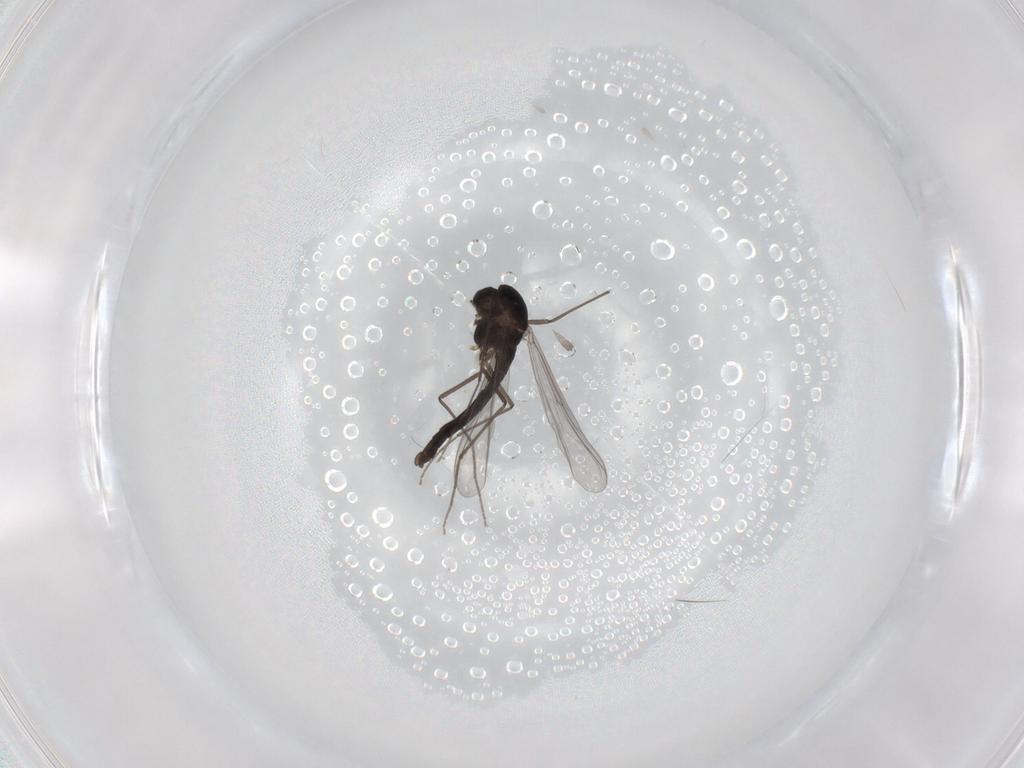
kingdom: Animalia
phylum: Arthropoda
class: Insecta
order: Diptera
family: Chironomidae
